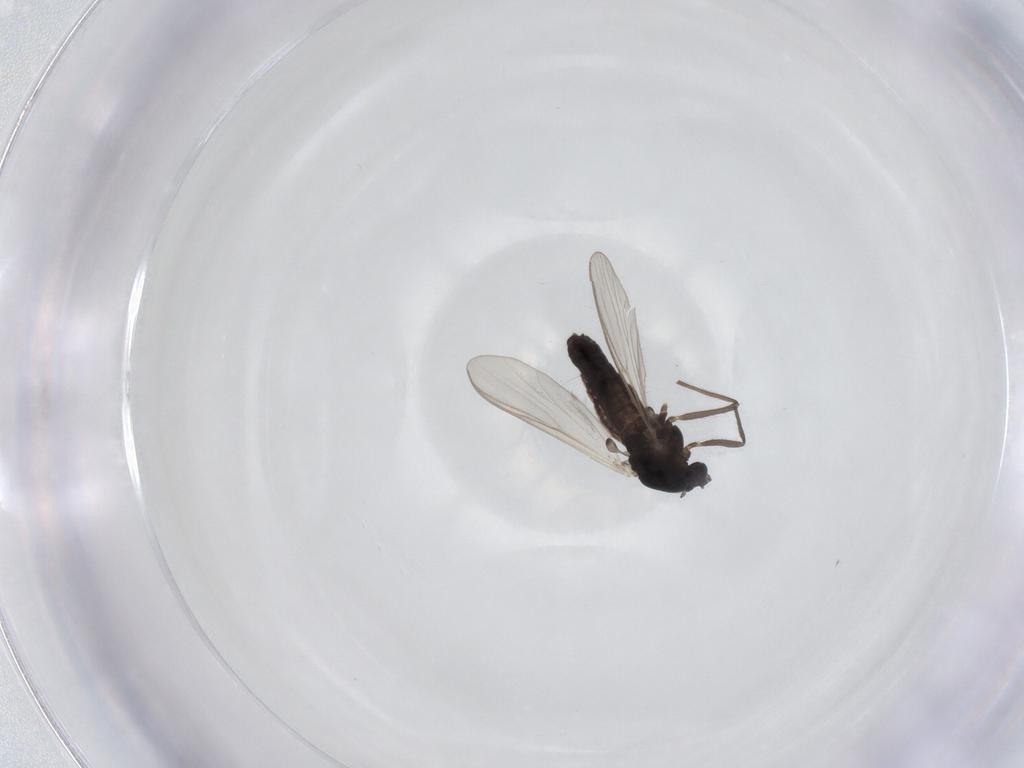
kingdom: Animalia
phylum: Arthropoda
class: Insecta
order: Diptera
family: Chironomidae
